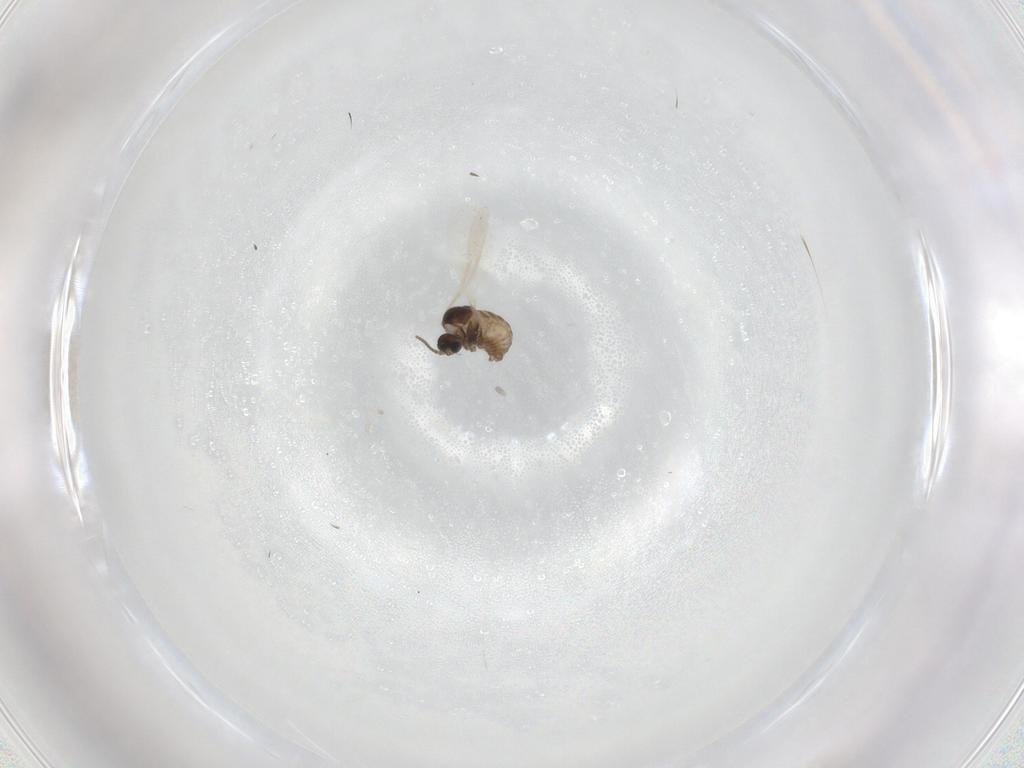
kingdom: Animalia
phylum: Arthropoda
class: Insecta
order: Diptera
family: Cecidomyiidae
